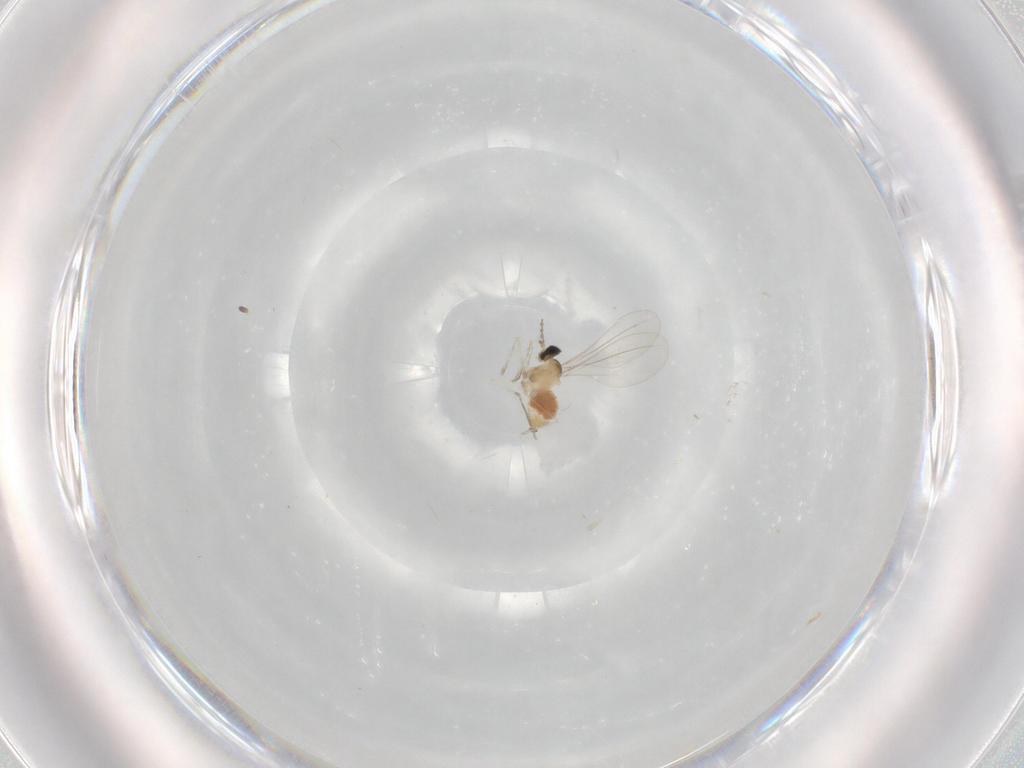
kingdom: Animalia
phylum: Arthropoda
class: Insecta
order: Diptera
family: Cecidomyiidae
